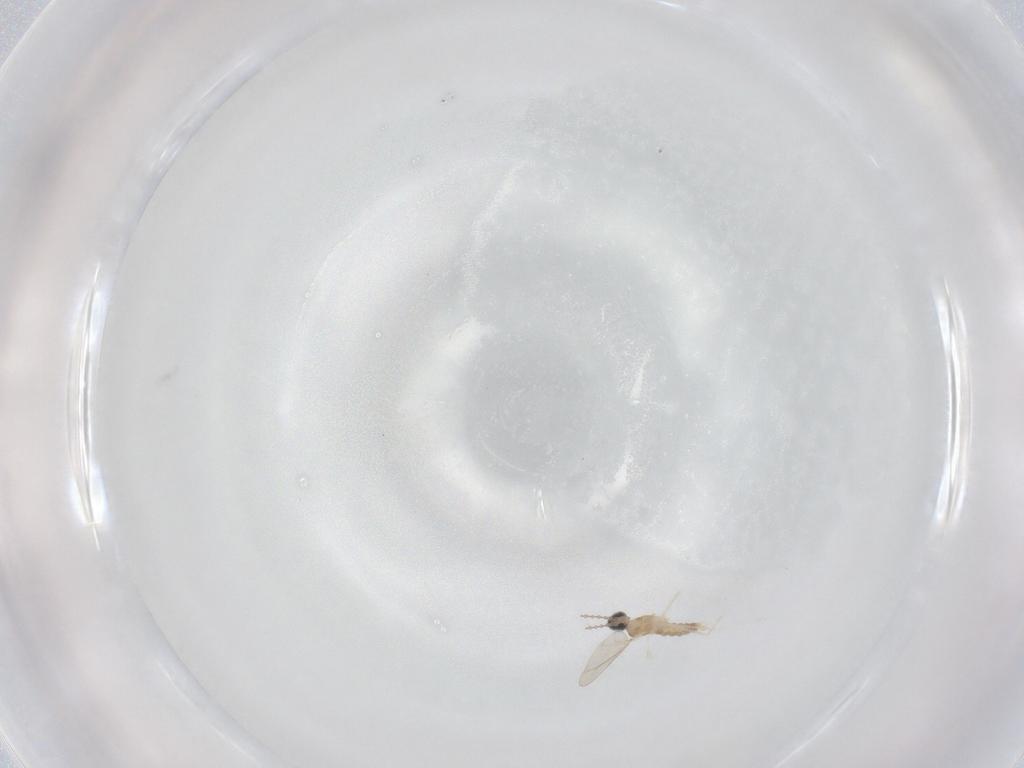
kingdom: Animalia
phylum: Arthropoda
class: Insecta
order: Diptera
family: Cecidomyiidae
